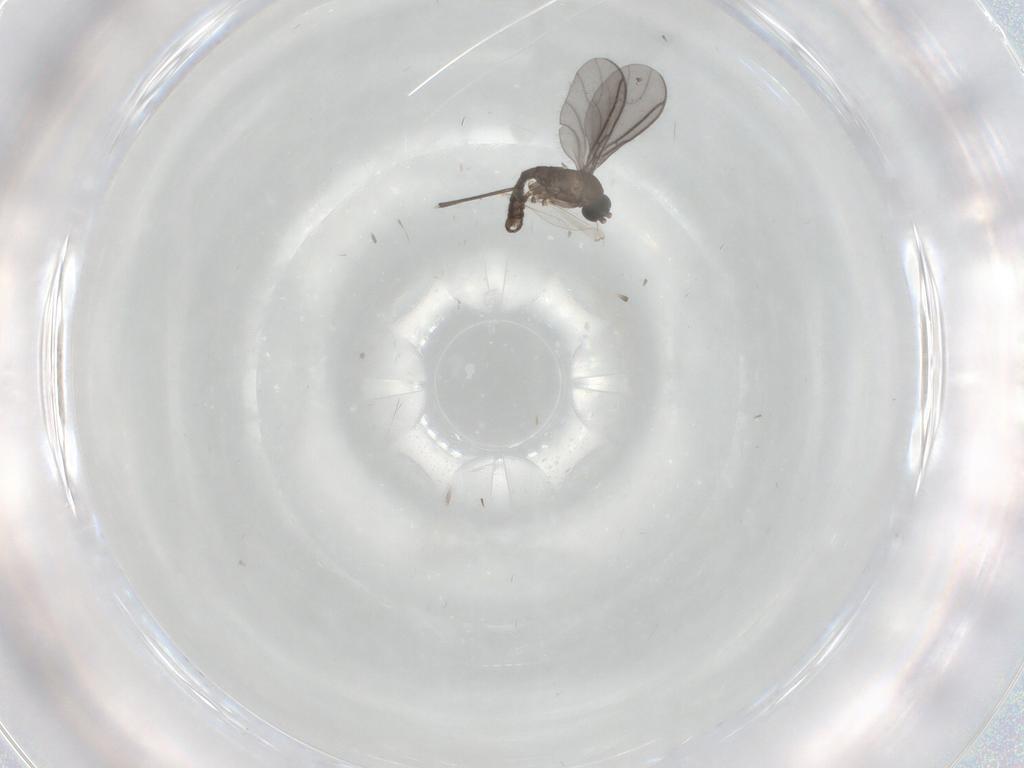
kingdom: Animalia
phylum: Arthropoda
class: Insecta
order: Diptera
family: Sciaridae
